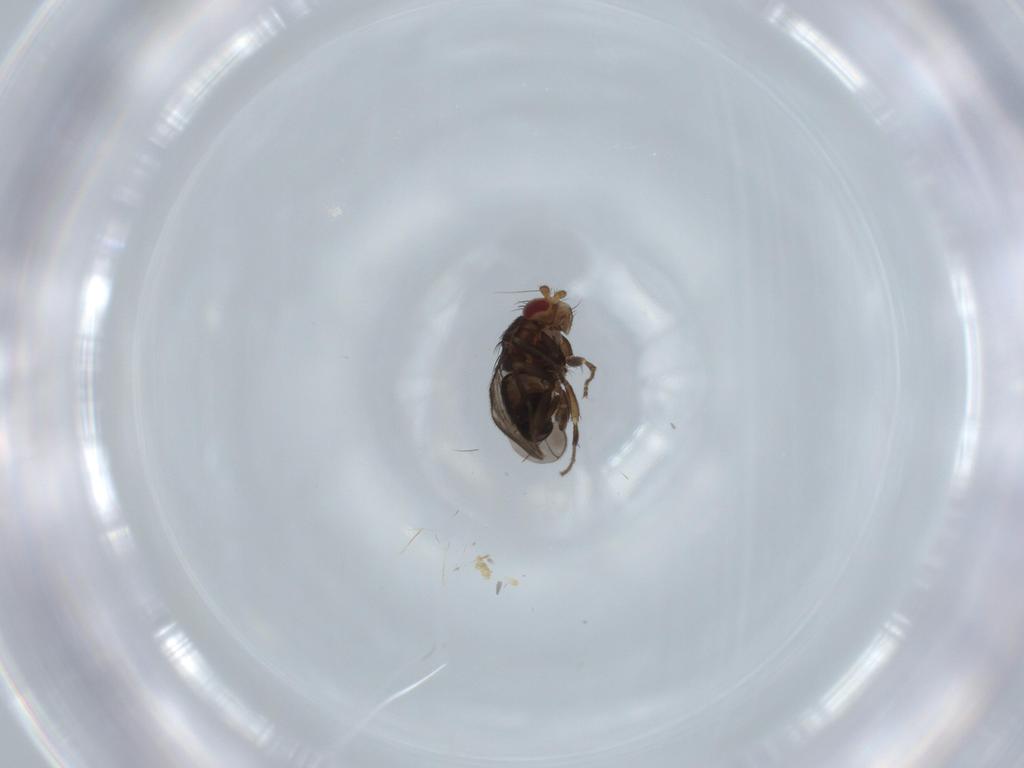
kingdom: Animalia
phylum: Arthropoda
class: Insecta
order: Diptera
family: Sphaeroceridae
